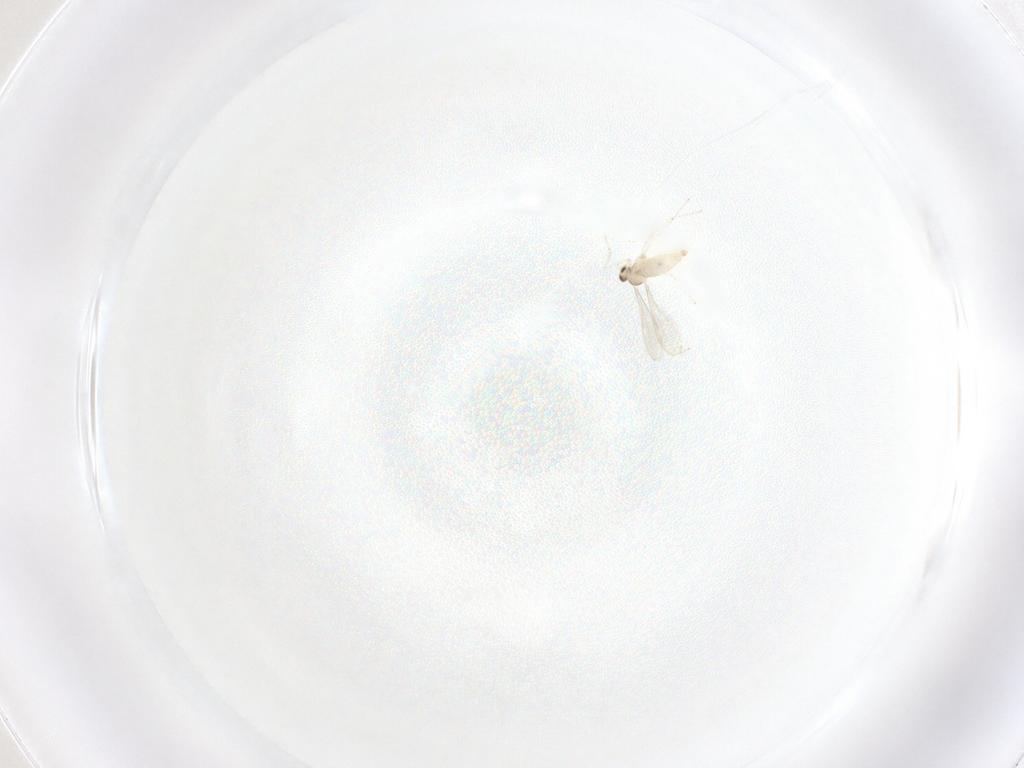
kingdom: Animalia
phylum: Arthropoda
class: Insecta
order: Diptera
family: Cecidomyiidae
